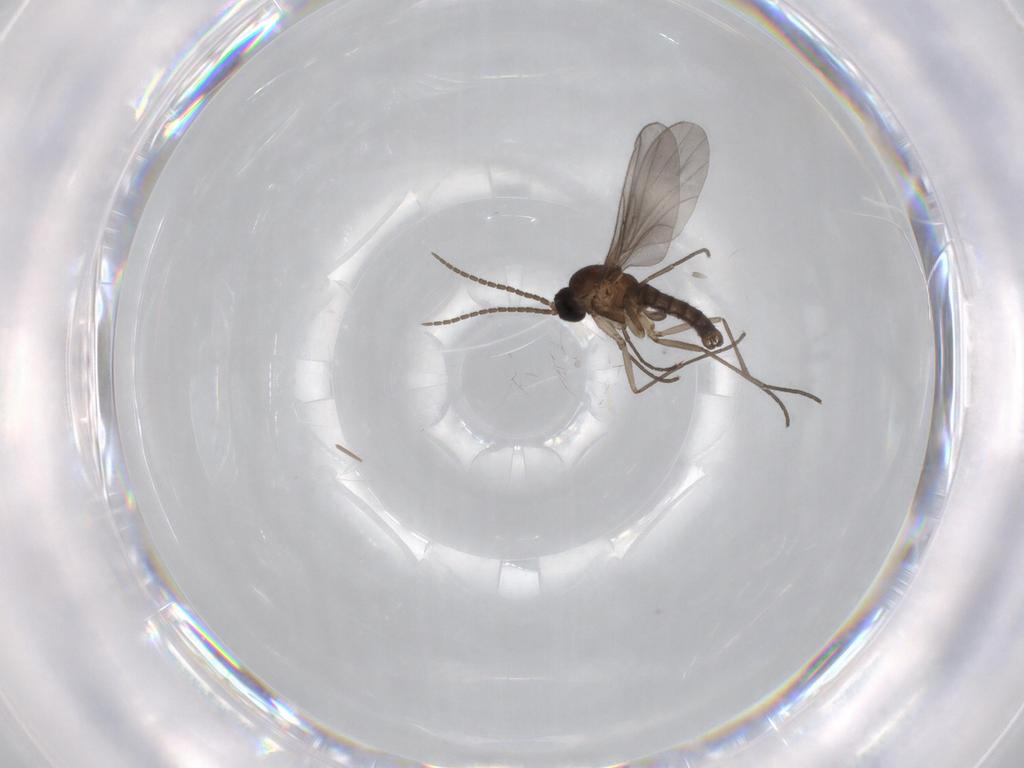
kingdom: Animalia
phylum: Arthropoda
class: Insecta
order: Diptera
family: Sciaridae
